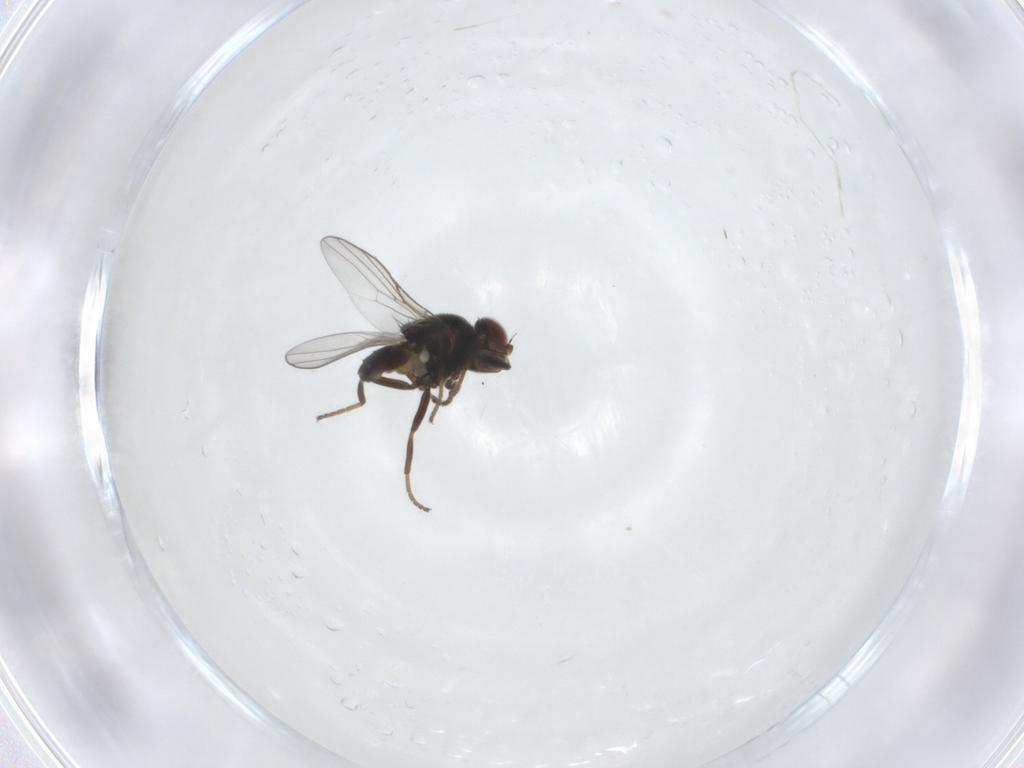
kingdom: Animalia
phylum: Arthropoda
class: Insecta
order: Diptera
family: Chloropidae
